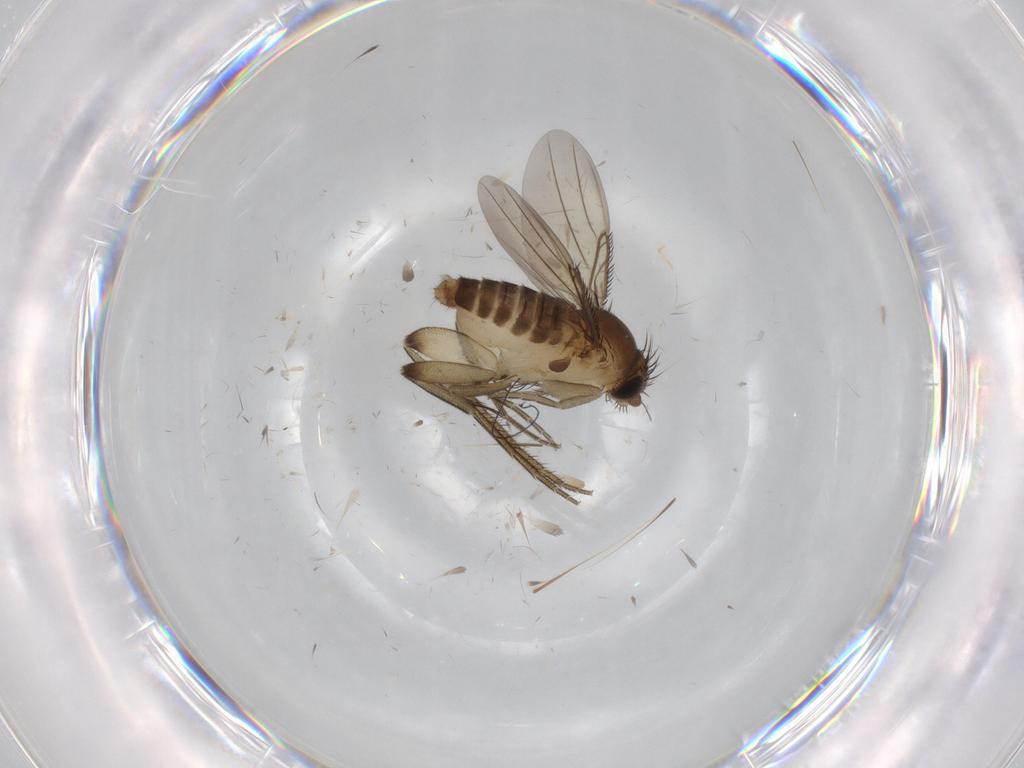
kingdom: Animalia
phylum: Arthropoda
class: Insecta
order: Diptera
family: Phoridae
